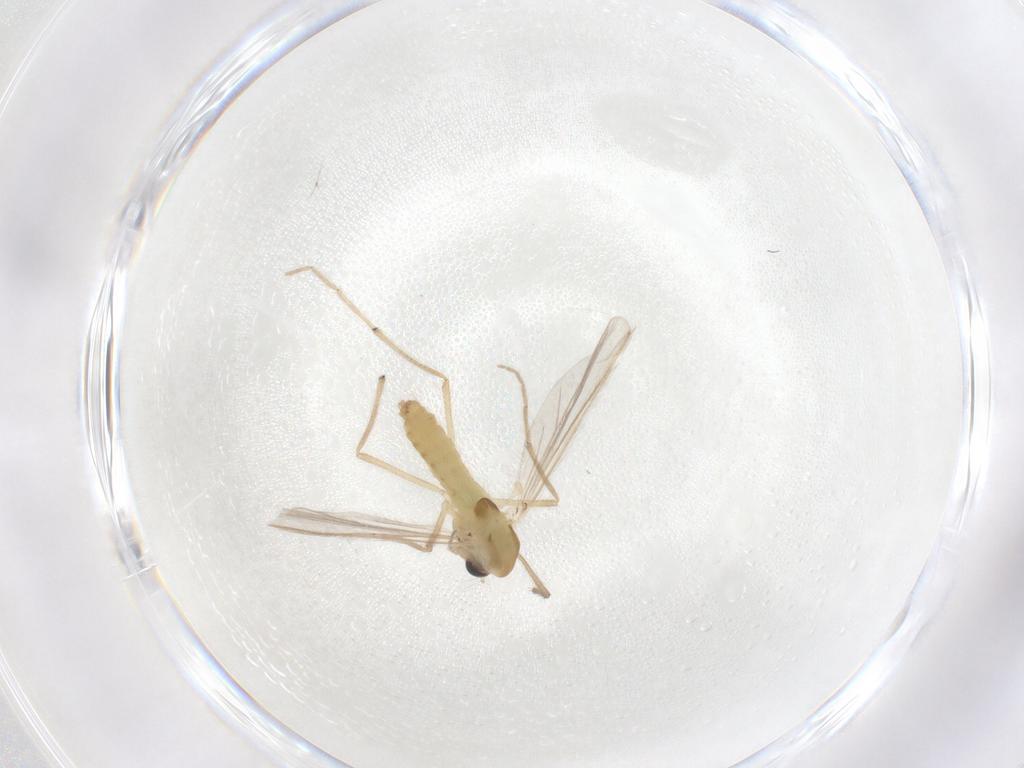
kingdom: Animalia
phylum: Arthropoda
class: Insecta
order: Diptera
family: Chironomidae
